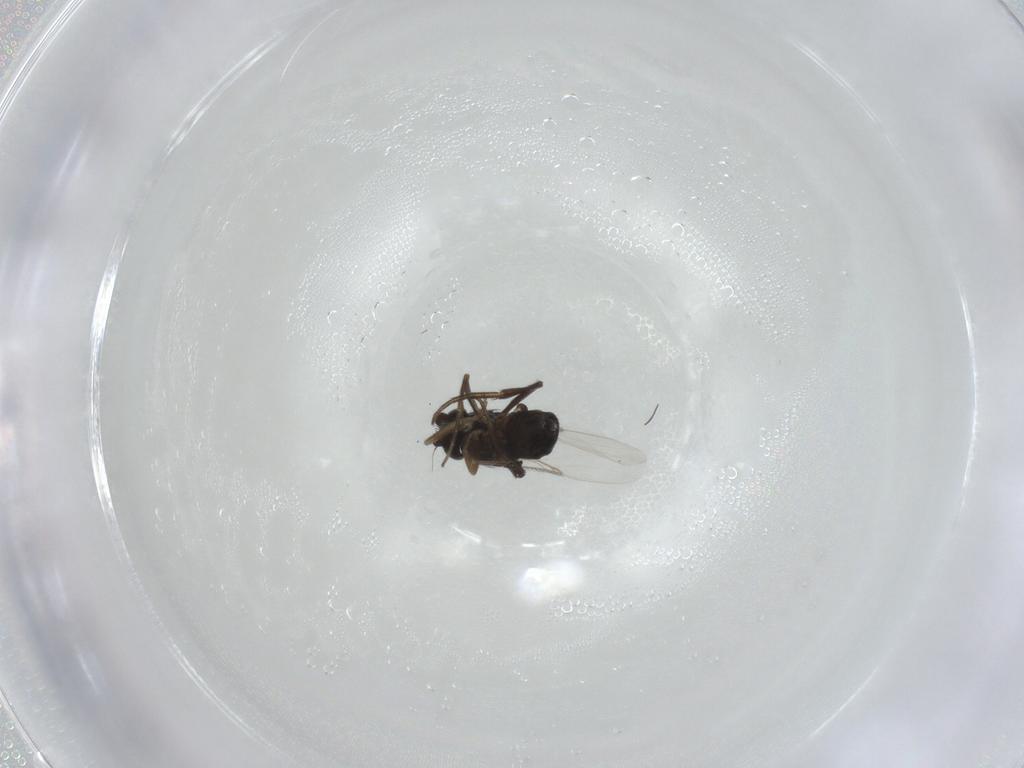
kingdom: Animalia
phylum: Arthropoda
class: Insecta
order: Diptera
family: Phoridae
